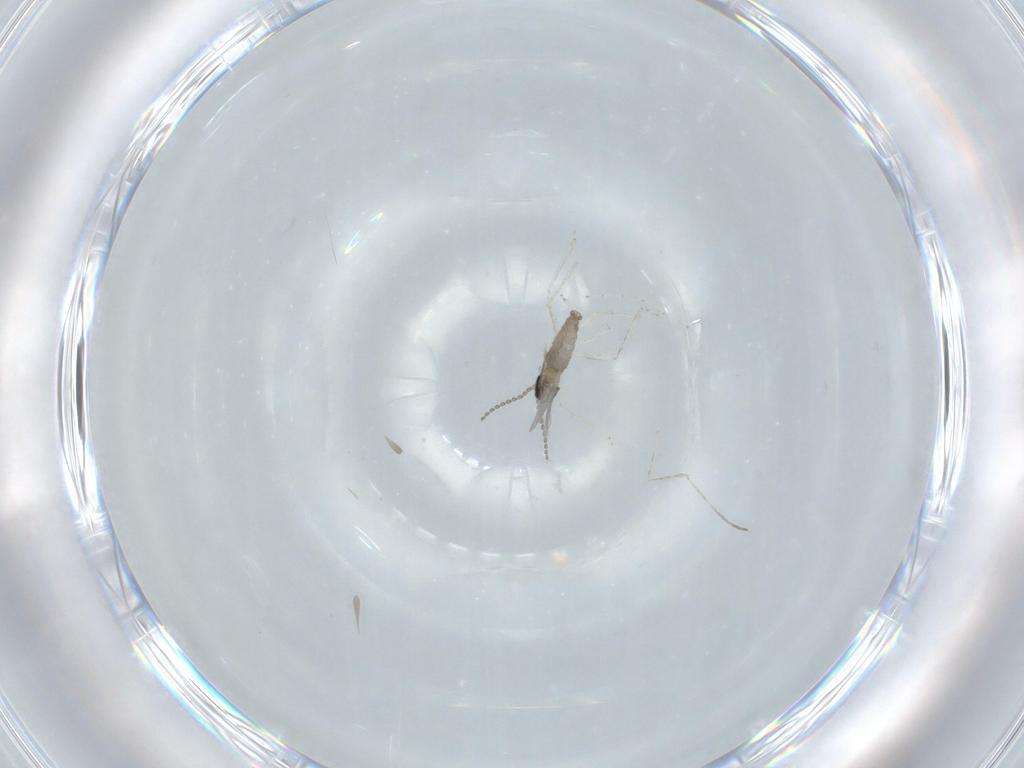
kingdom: Animalia
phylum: Arthropoda
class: Insecta
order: Diptera
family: Cecidomyiidae
